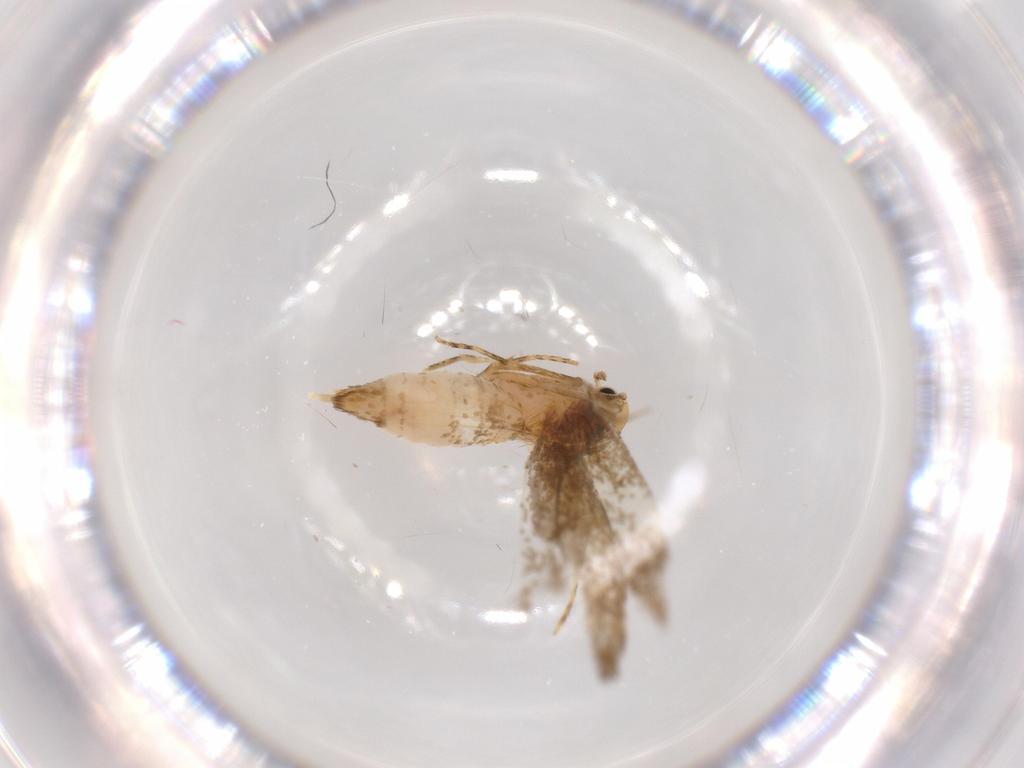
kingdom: Animalia
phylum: Arthropoda
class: Insecta
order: Lepidoptera
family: Tineidae
